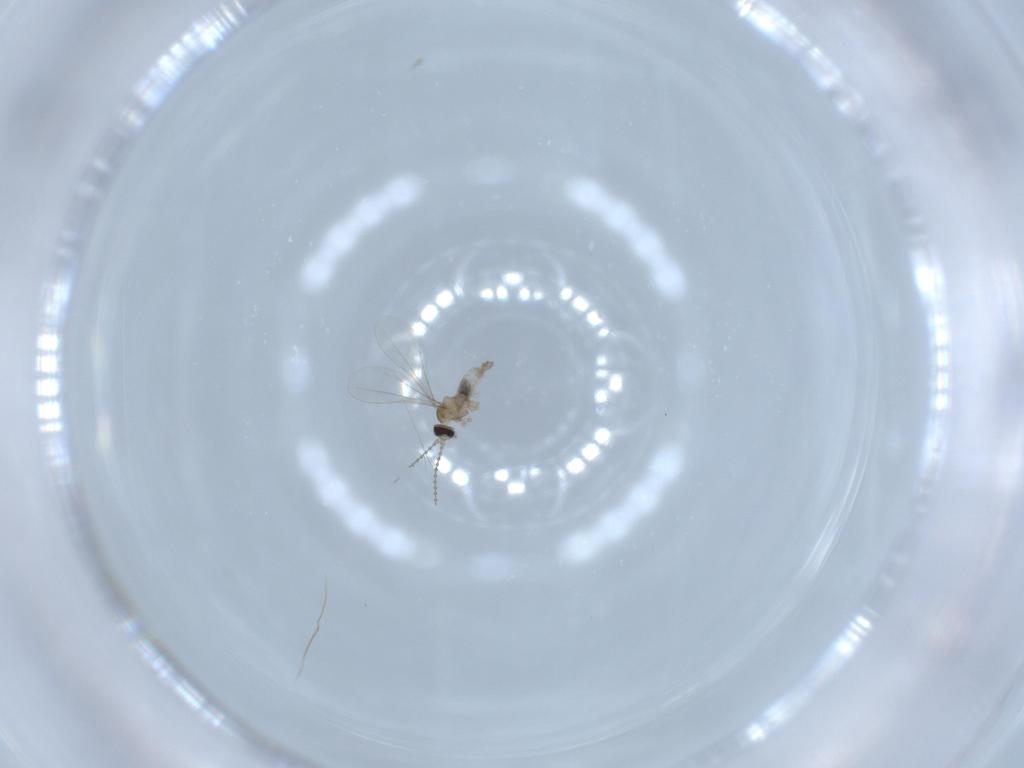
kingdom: Animalia
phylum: Arthropoda
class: Insecta
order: Diptera
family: Cecidomyiidae
